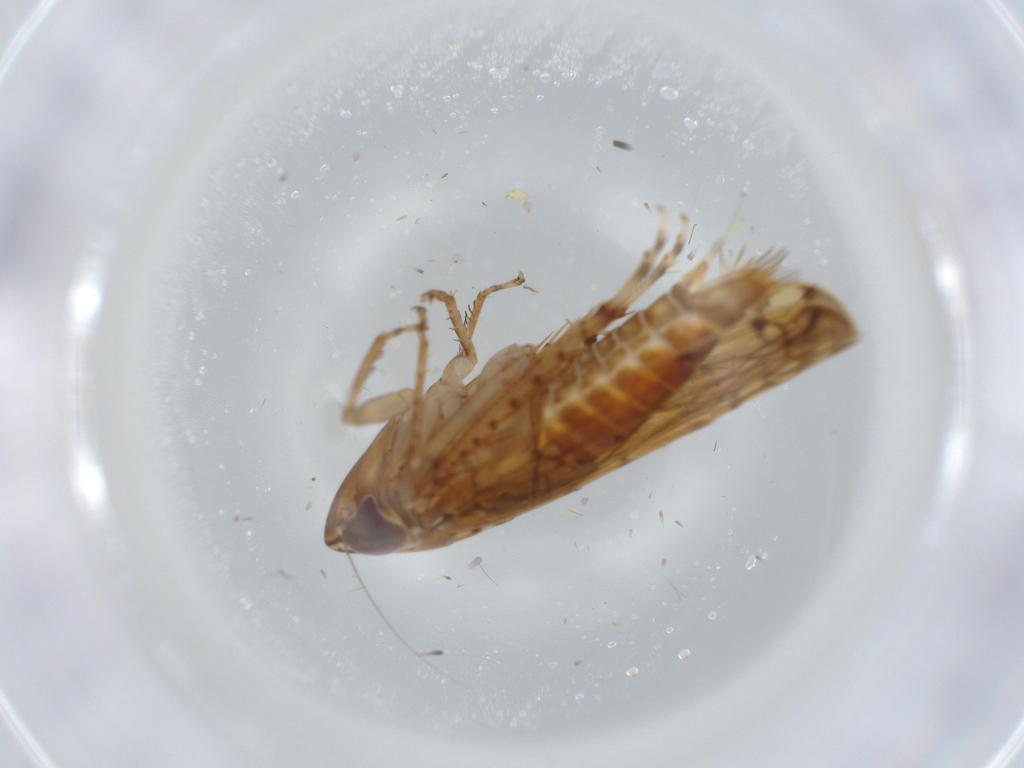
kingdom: Animalia
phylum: Arthropoda
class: Insecta
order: Hemiptera
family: Cicadellidae
